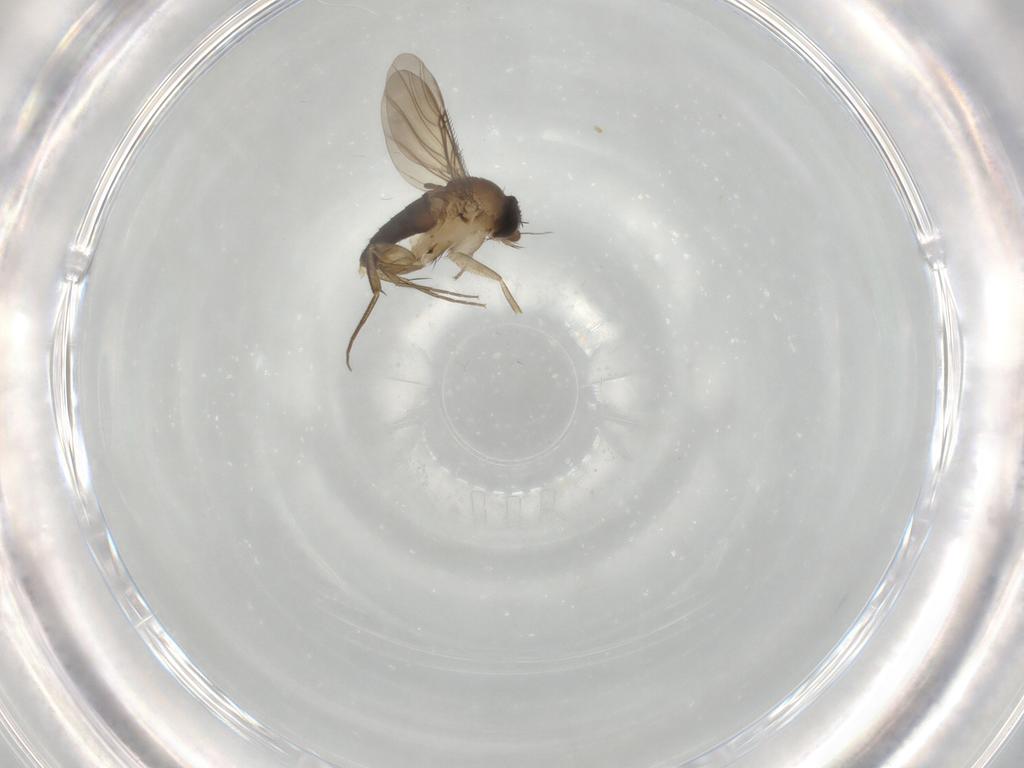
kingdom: Animalia
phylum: Arthropoda
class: Insecta
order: Diptera
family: Phoridae
